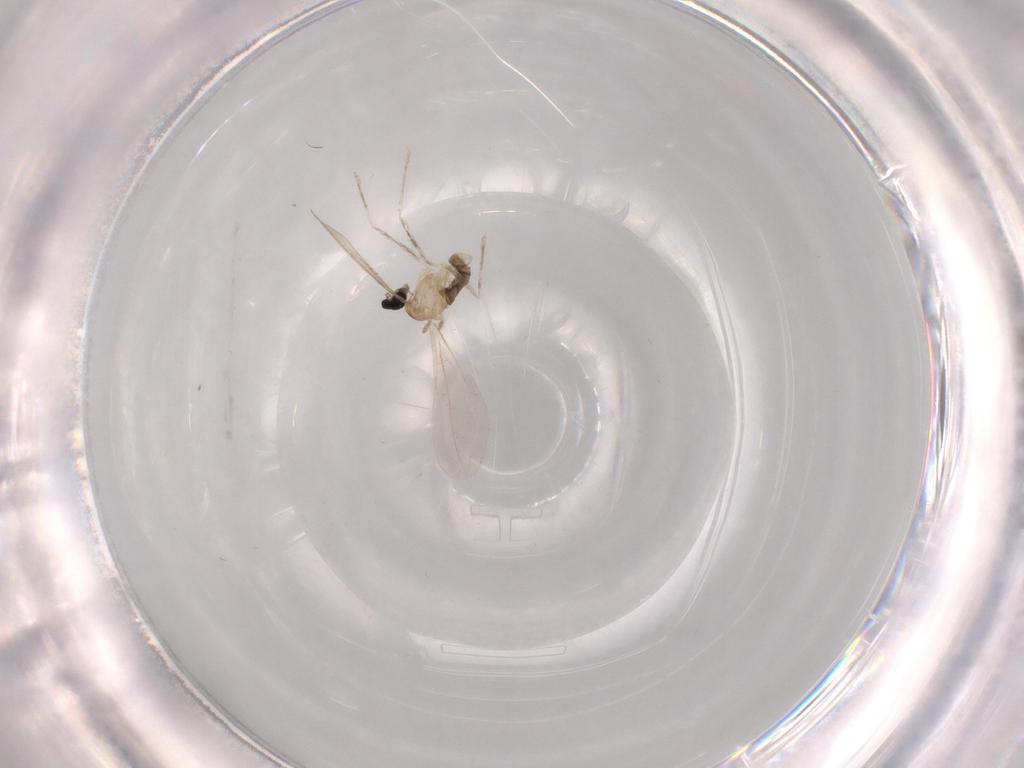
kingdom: Animalia
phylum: Arthropoda
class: Insecta
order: Diptera
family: Cecidomyiidae
